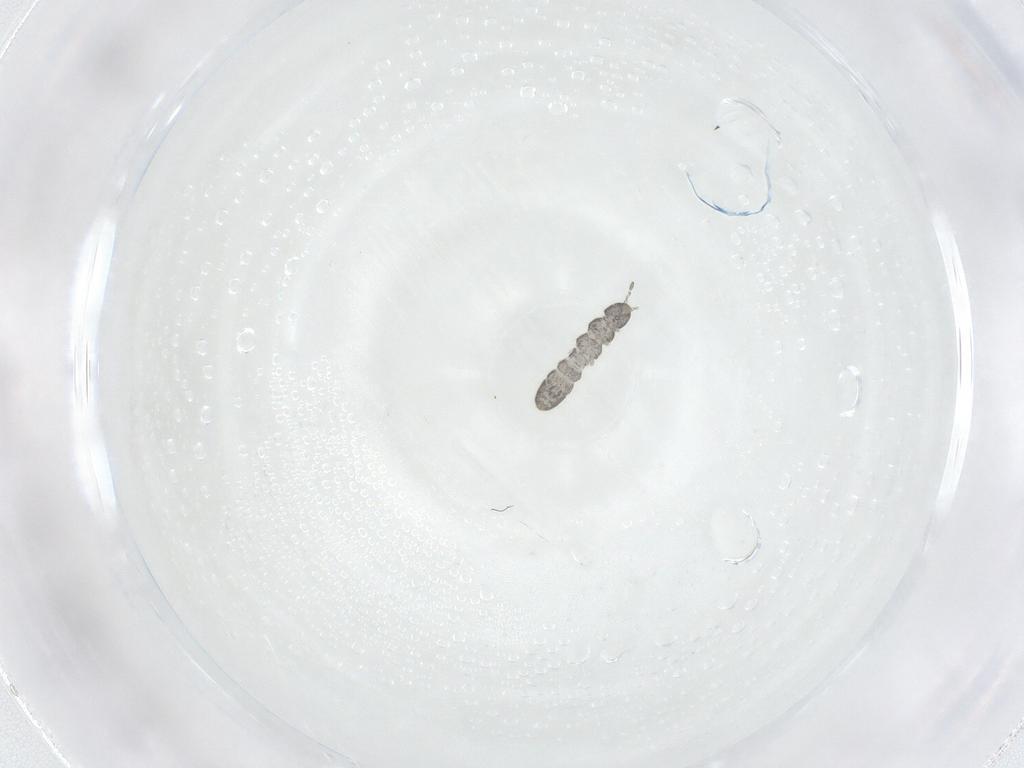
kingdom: Animalia
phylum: Arthropoda
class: Collembola
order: Entomobryomorpha
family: Isotomidae
